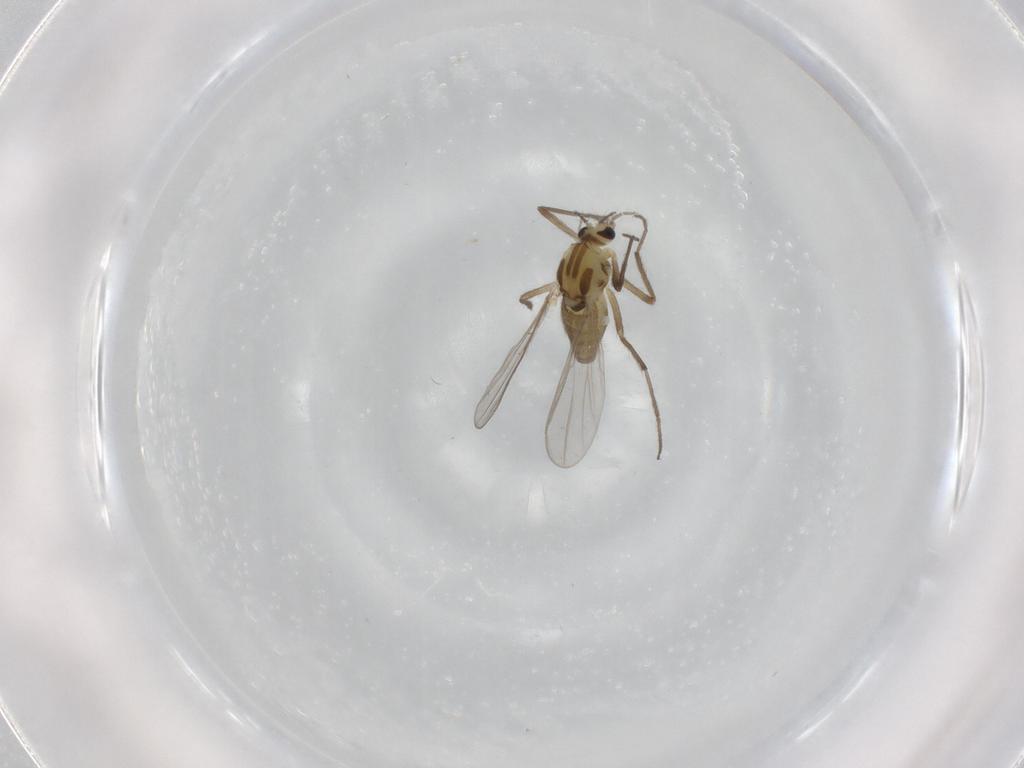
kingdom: Animalia
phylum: Arthropoda
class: Insecta
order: Diptera
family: Chironomidae
